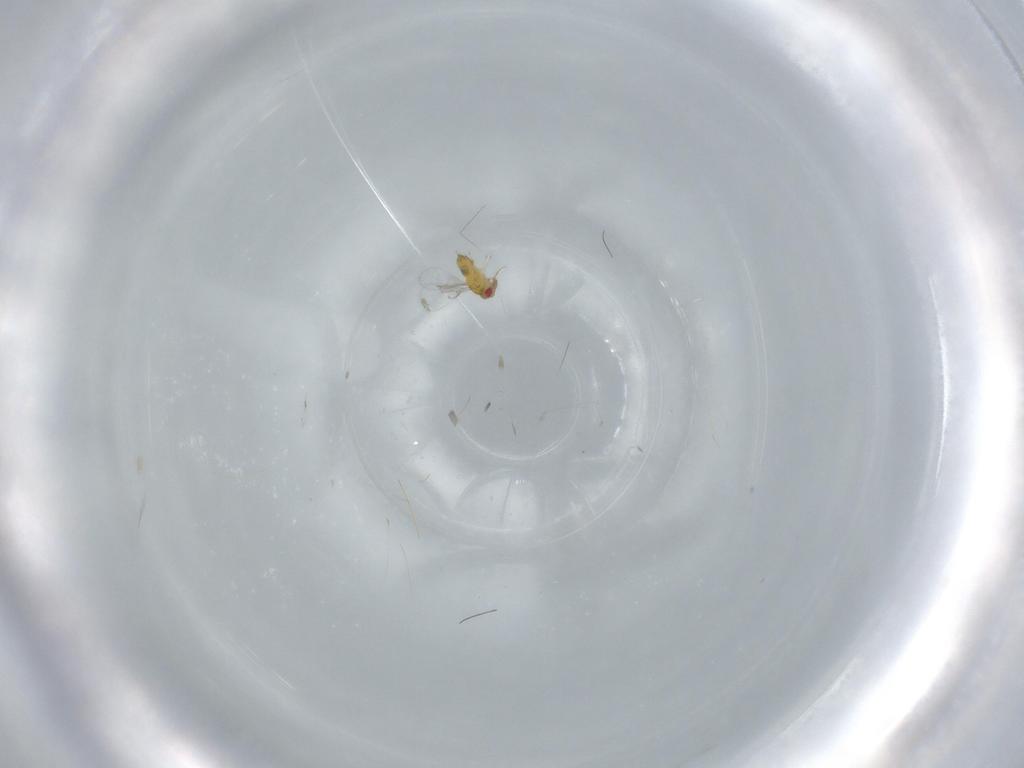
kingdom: Animalia
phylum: Arthropoda
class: Insecta
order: Hymenoptera
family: Trichogrammatidae
